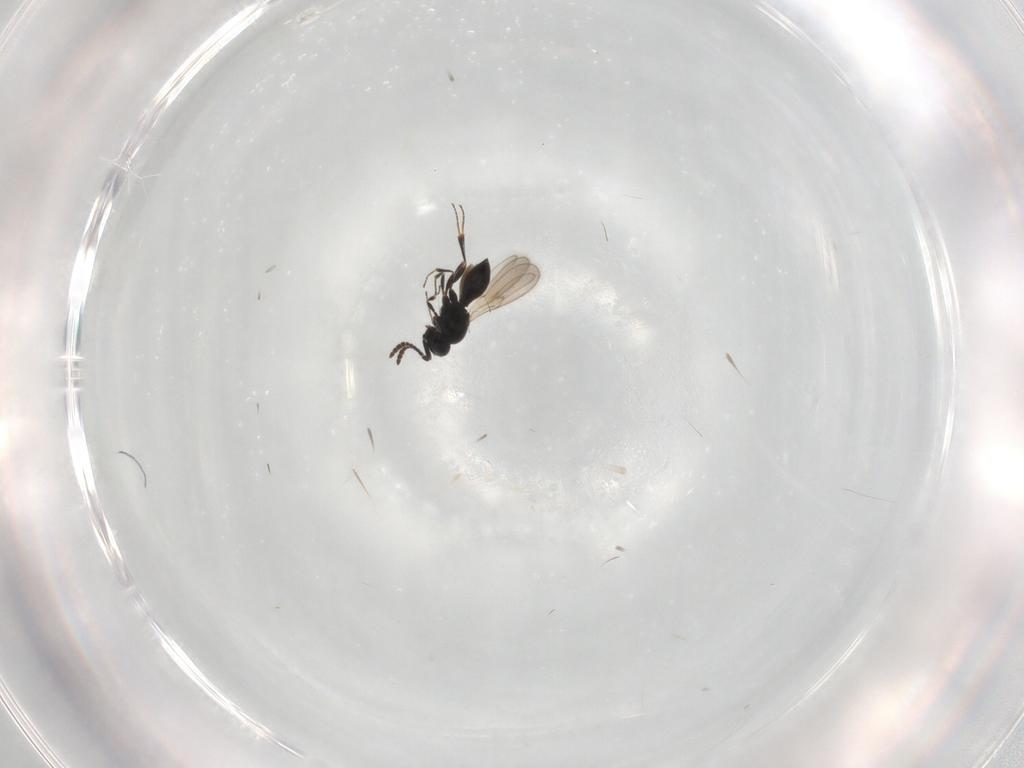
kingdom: Animalia
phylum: Arthropoda
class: Insecta
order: Hymenoptera
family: Scelionidae
